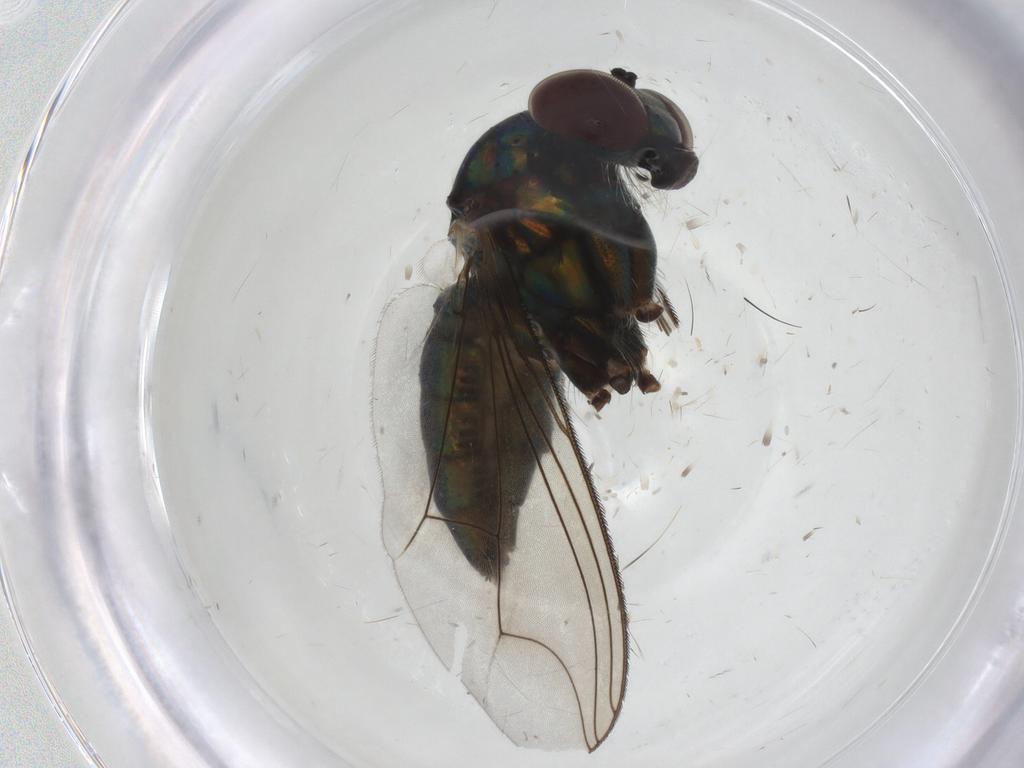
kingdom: Animalia
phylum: Arthropoda
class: Insecta
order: Diptera
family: Dolichopodidae
